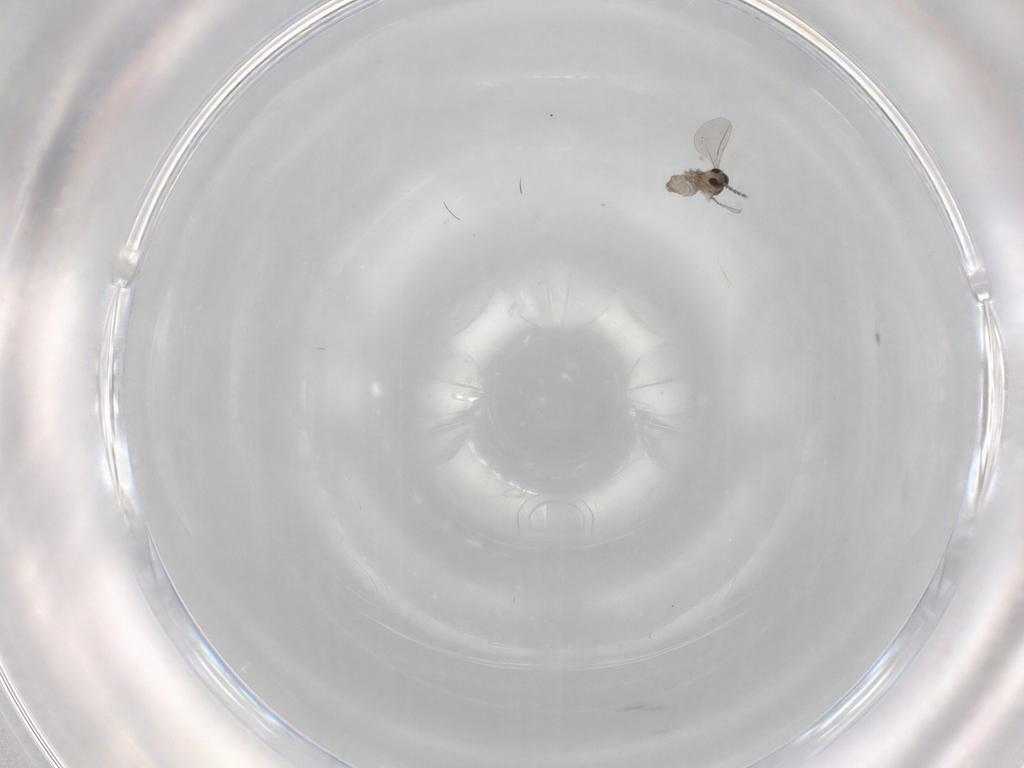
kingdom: Animalia
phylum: Arthropoda
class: Insecta
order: Diptera
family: Cecidomyiidae
